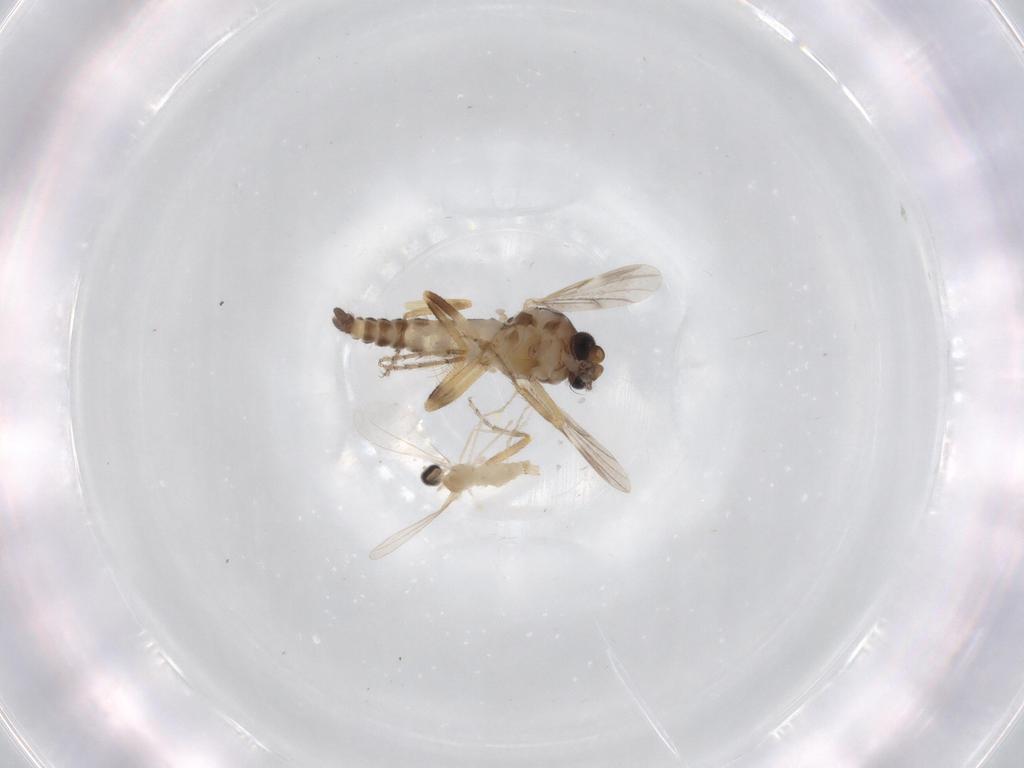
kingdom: Animalia
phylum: Arthropoda
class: Insecta
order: Diptera
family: Ceratopogonidae
